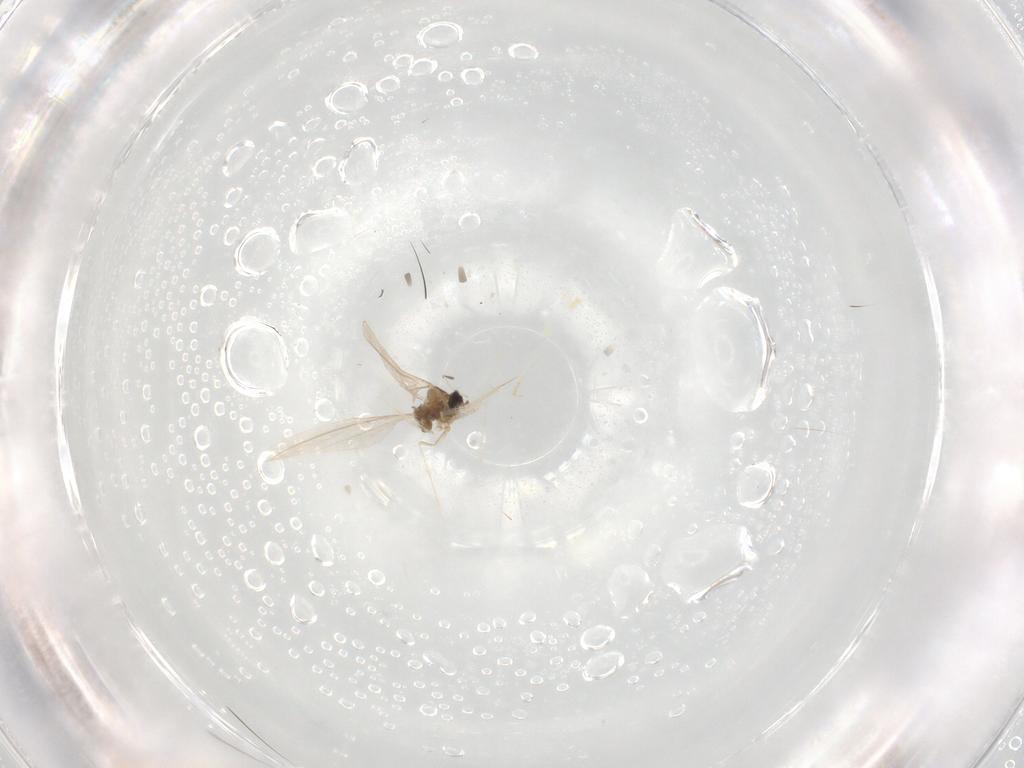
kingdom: Animalia
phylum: Arthropoda
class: Insecta
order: Diptera
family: Cecidomyiidae
